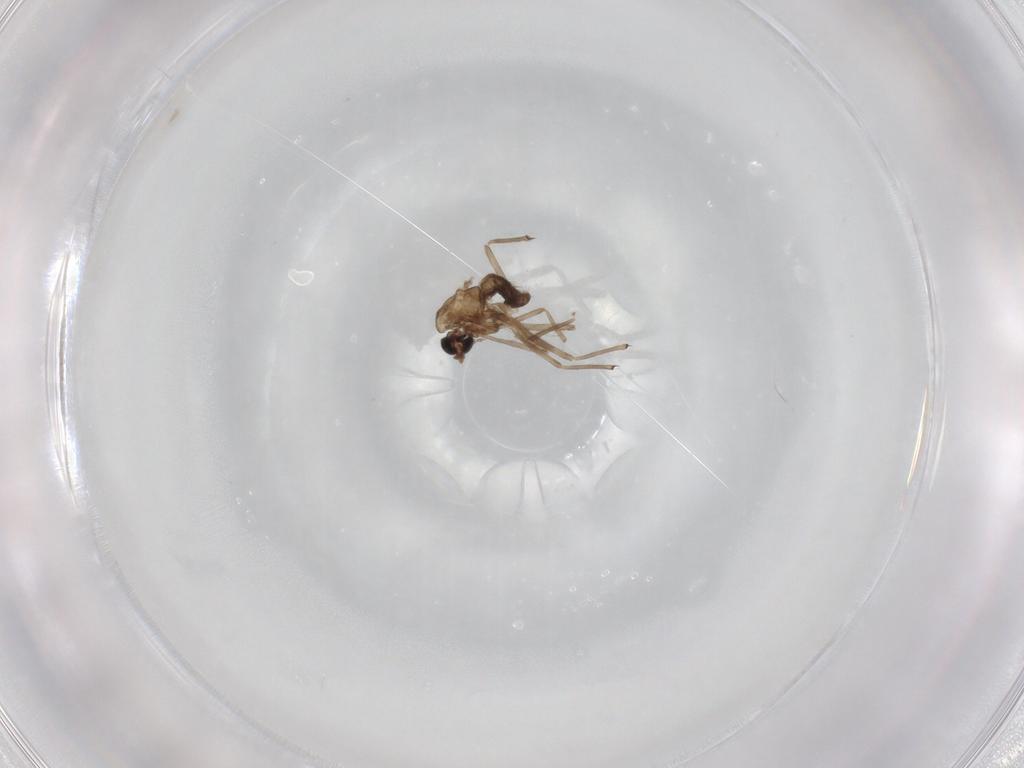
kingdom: Animalia
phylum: Arthropoda
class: Insecta
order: Diptera
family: Chironomidae
